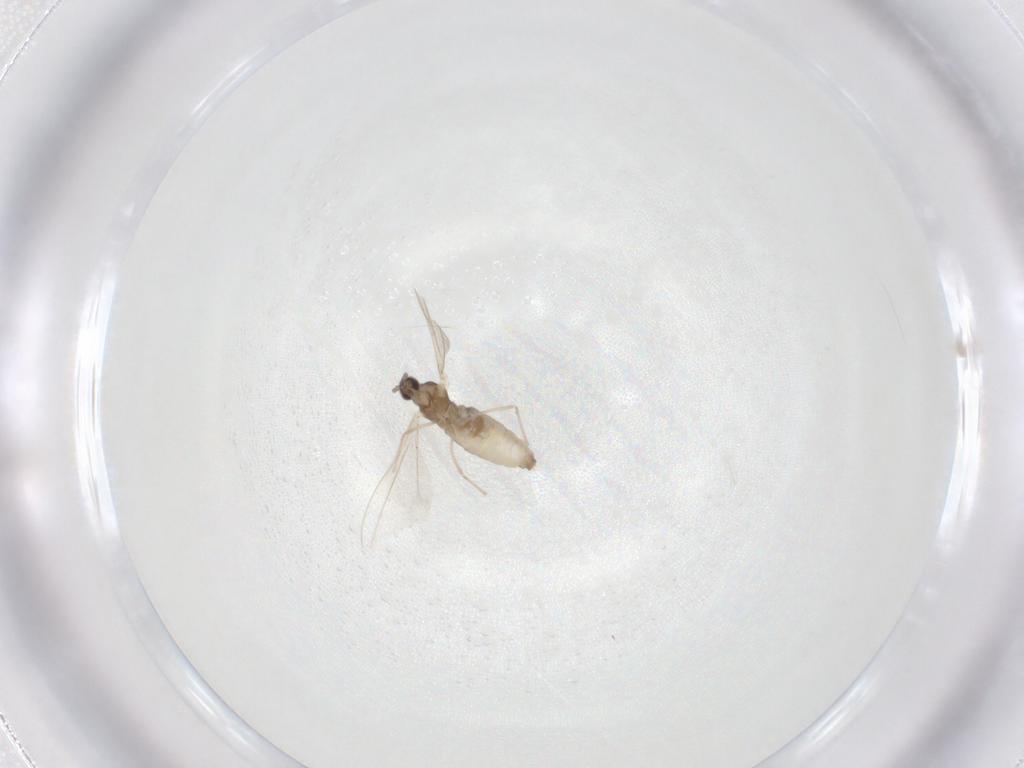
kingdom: Animalia
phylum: Arthropoda
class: Insecta
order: Diptera
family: Cecidomyiidae
